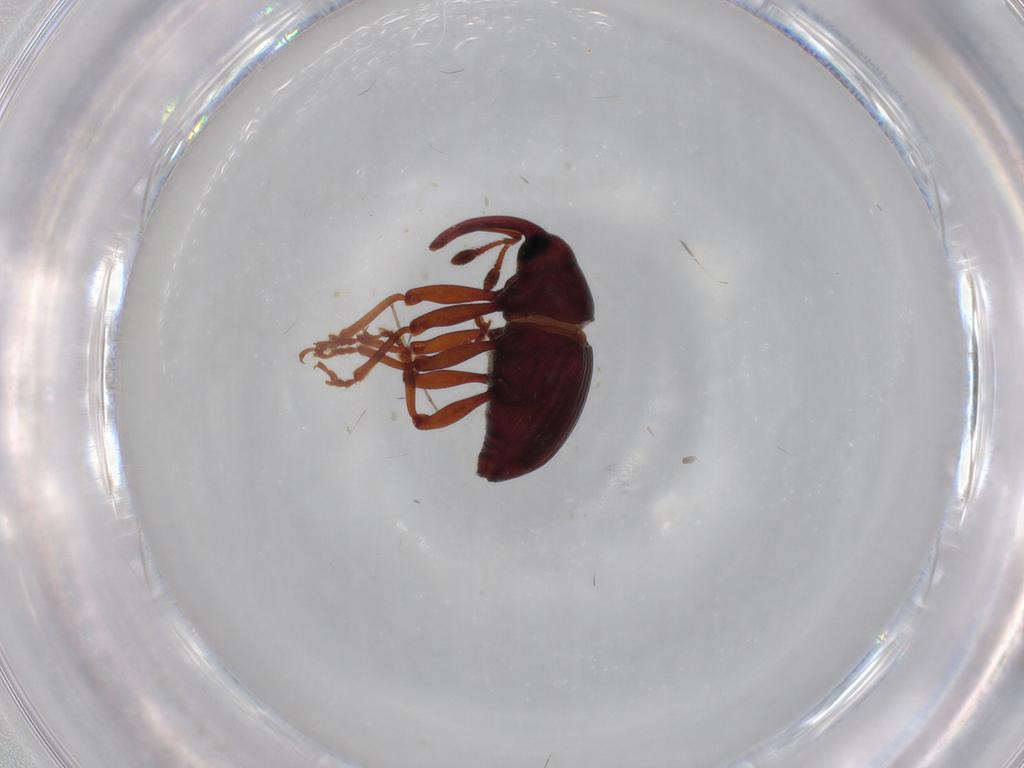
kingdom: Animalia
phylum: Arthropoda
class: Insecta
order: Coleoptera
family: Curculionidae
